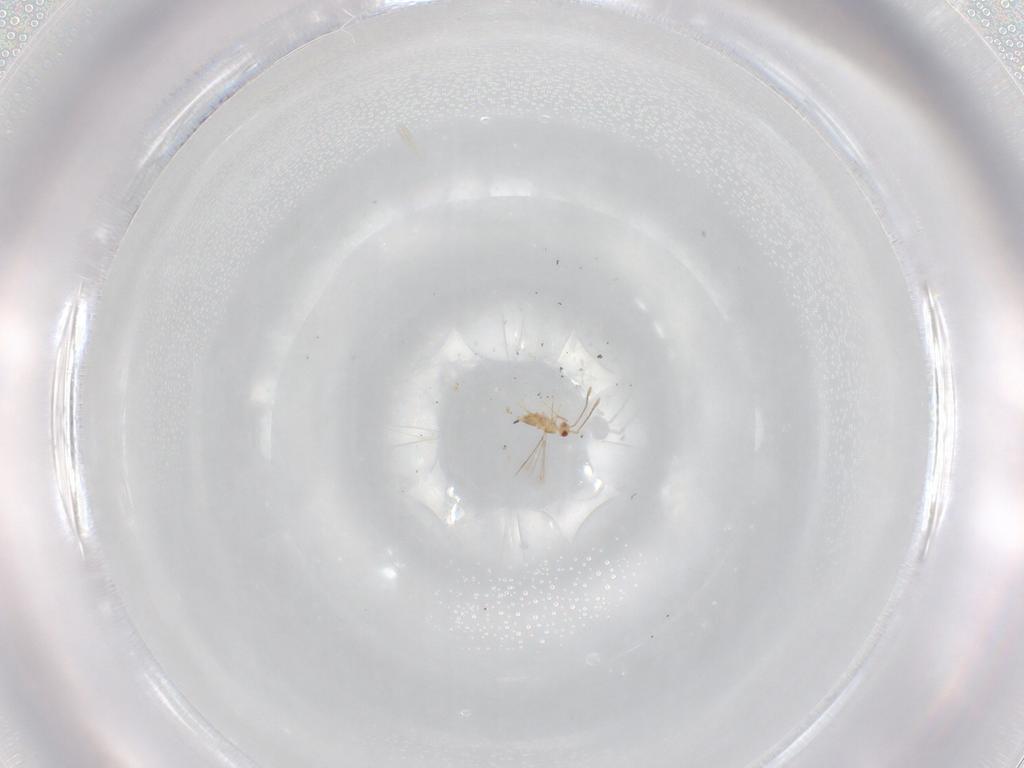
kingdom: Animalia
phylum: Arthropoda
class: Insecta
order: Hymenoptera
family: Mymaridae
